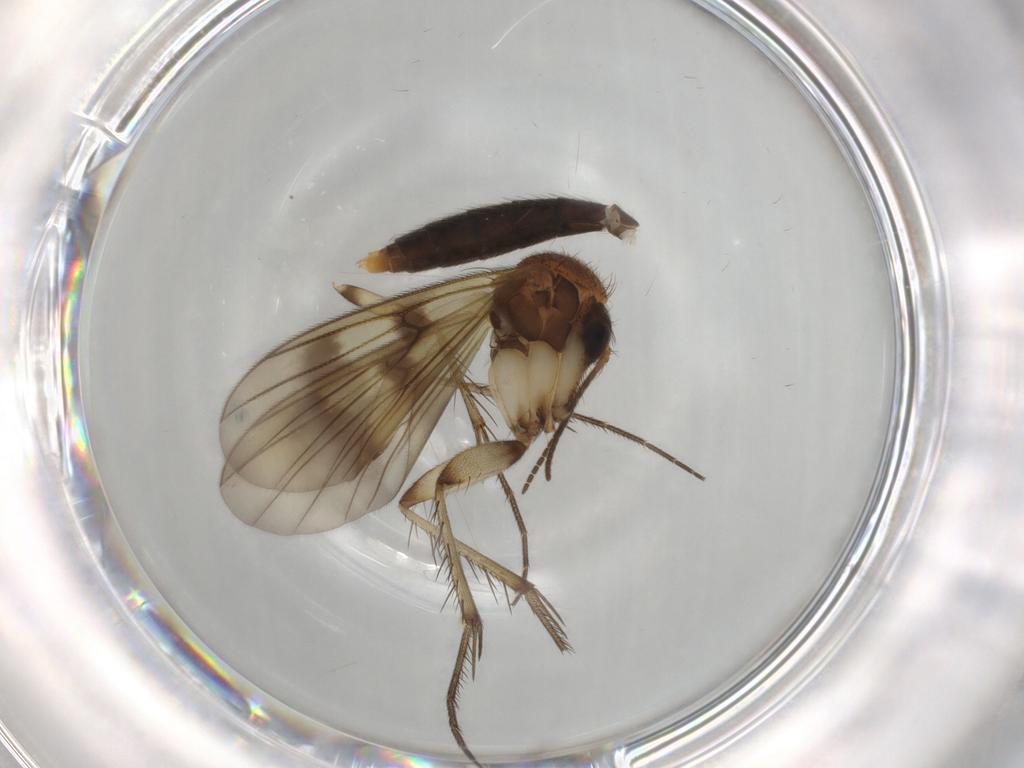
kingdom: Animalia
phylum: Arthropoda
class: Insecta
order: Diptera
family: Mycetophilidae
